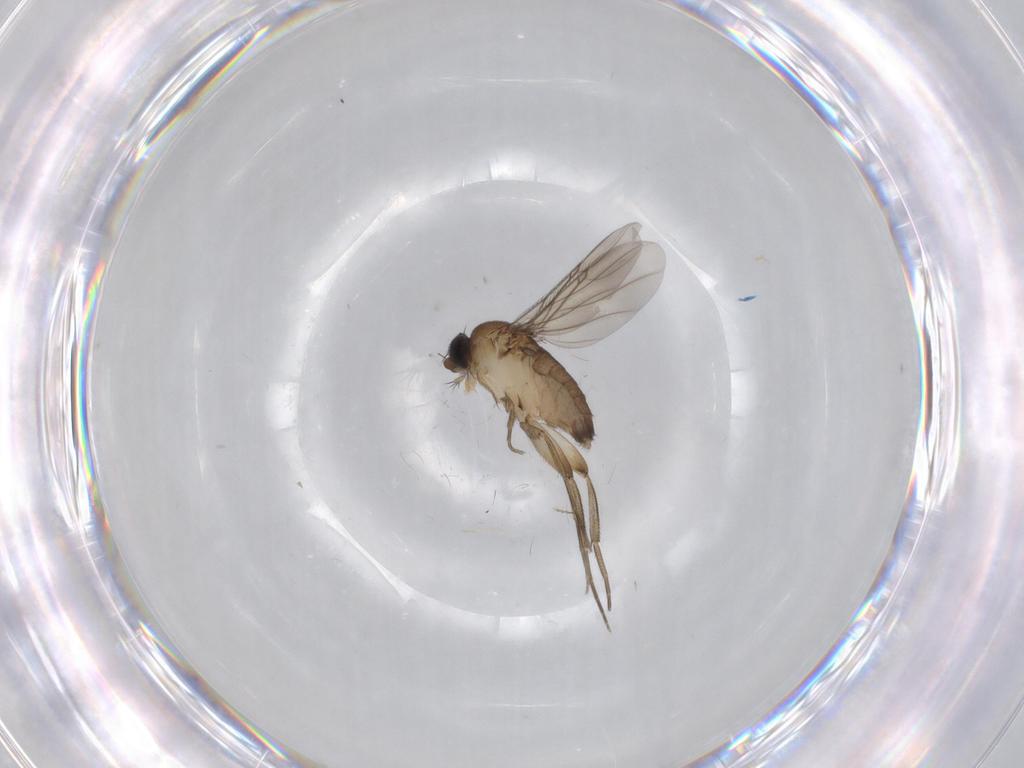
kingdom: Animalia
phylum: Arthropoda
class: Insecta
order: Diptera
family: Phoridae
